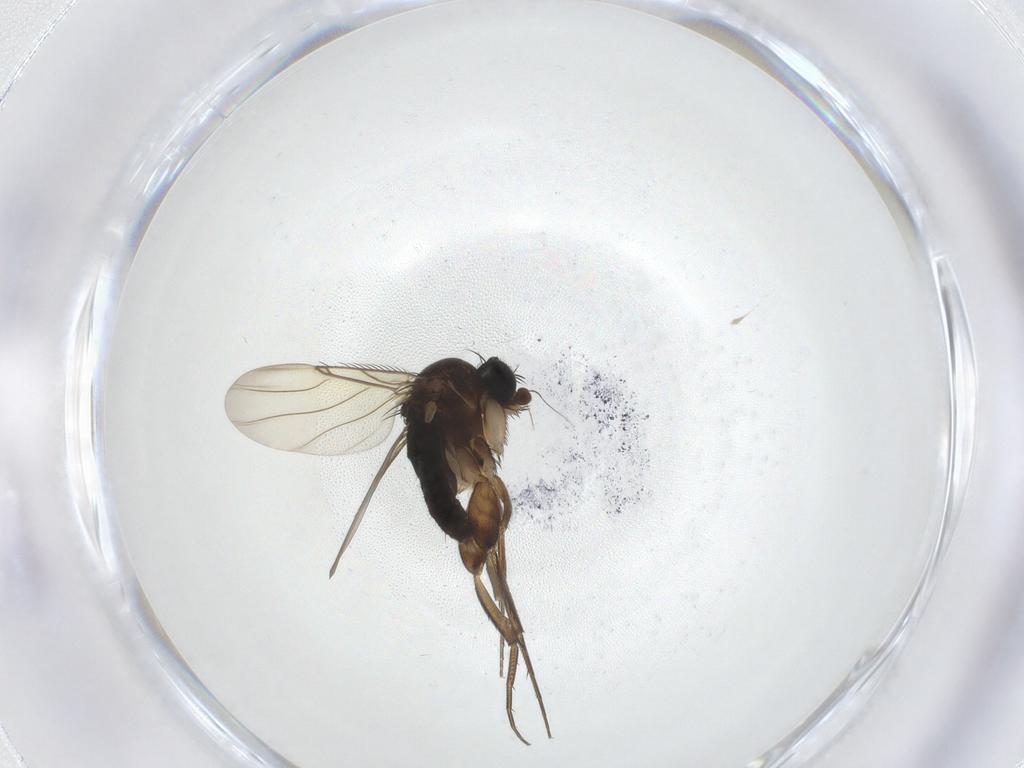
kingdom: Animalia
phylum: Arthropoda
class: Insecta
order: Diptera
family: Phoridae
